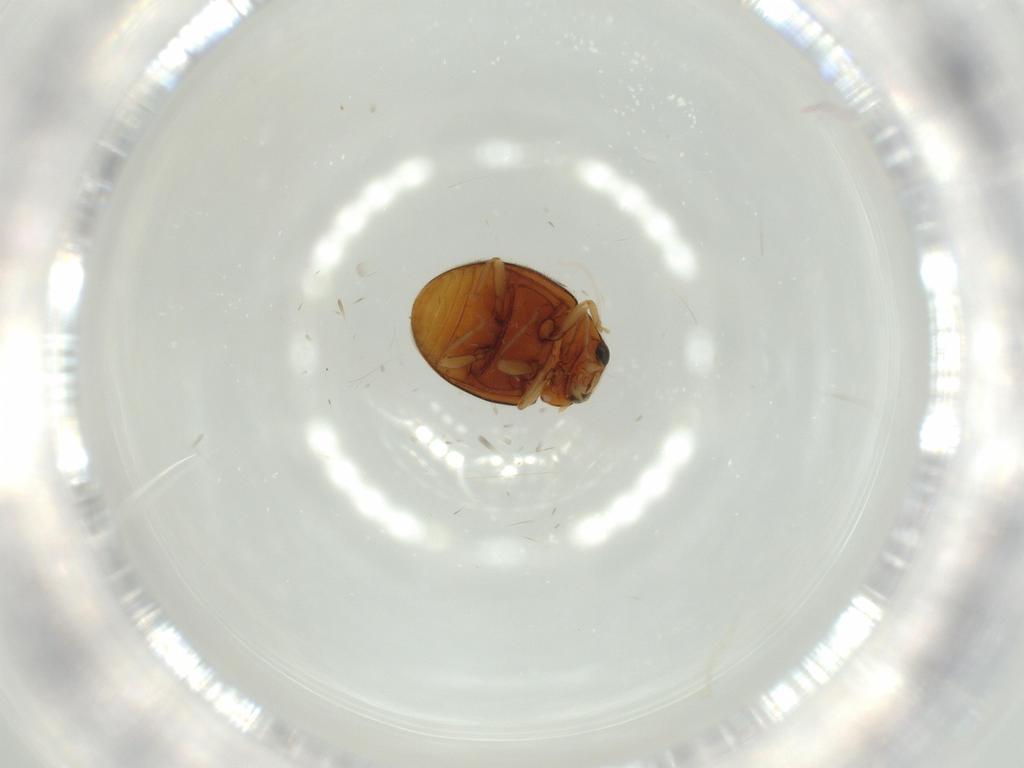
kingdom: Animalia
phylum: Arthropoda
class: Insecta
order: Coleoptera
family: Coccinellidae
